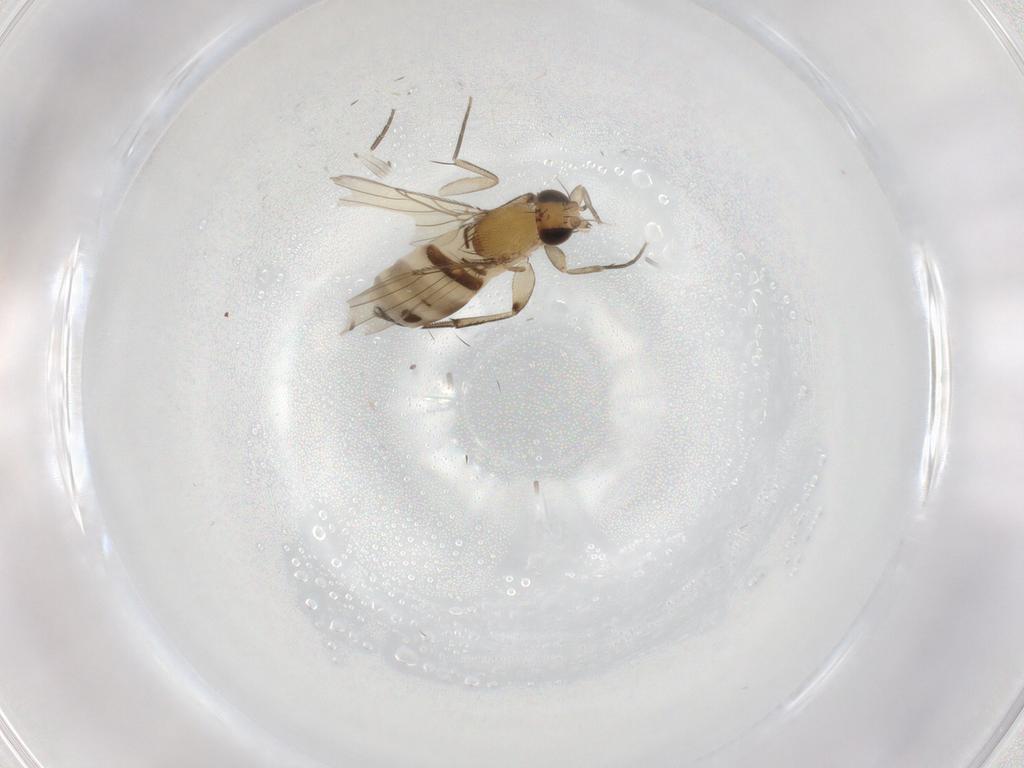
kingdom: Animalia
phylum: Arthropoda
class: Insecta
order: Diptera
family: Phoridae
